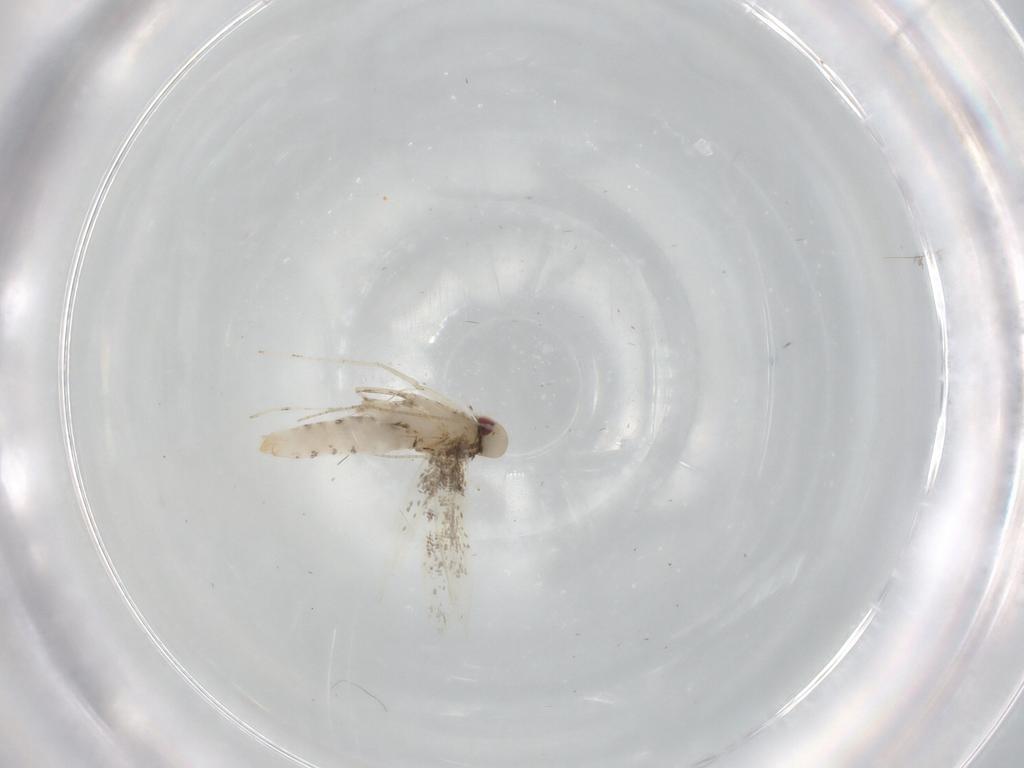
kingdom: Animalia
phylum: Arthropoda
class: Insecta
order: Lepidoptera
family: Gracillariidae
